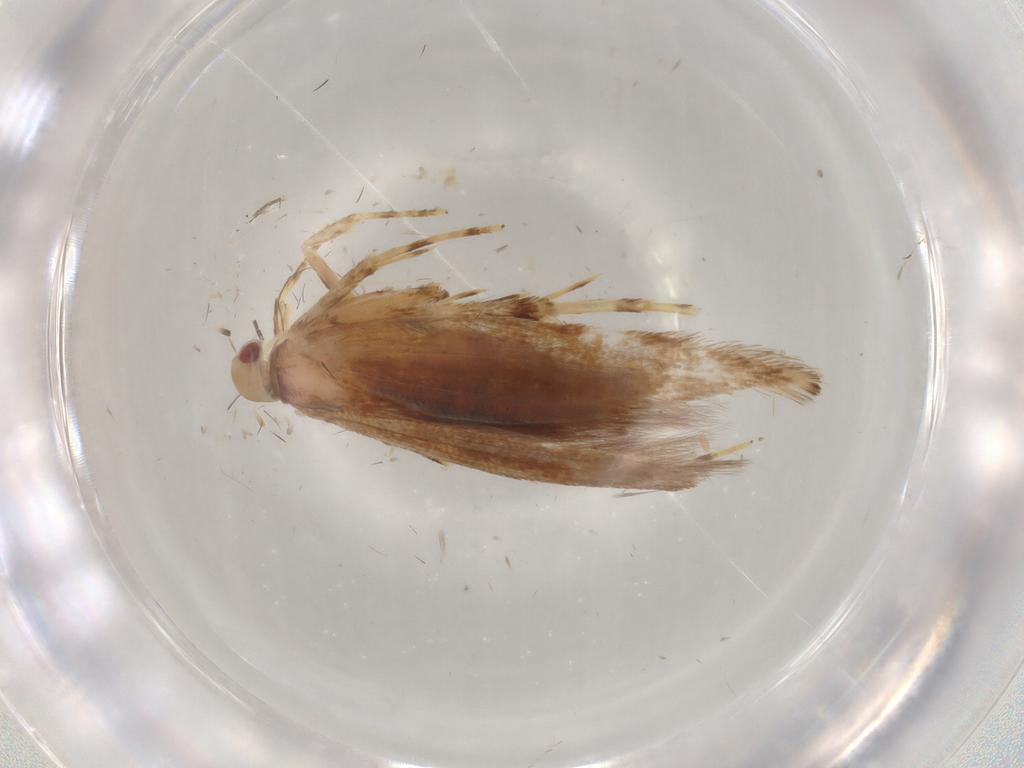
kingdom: Animalia
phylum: Arthropoda
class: Insecta
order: Lepidoptera
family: Cosmopterigidae
